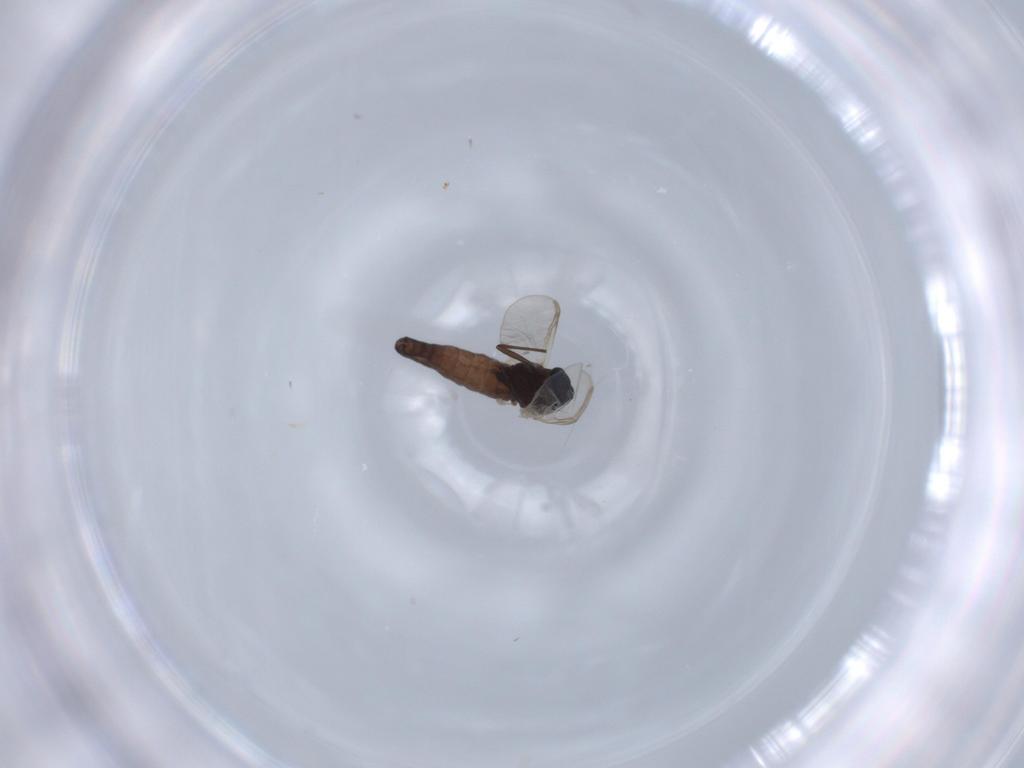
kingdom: Animalia
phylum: Arthropoda
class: Insecta
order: Diptera
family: Chironomidae
